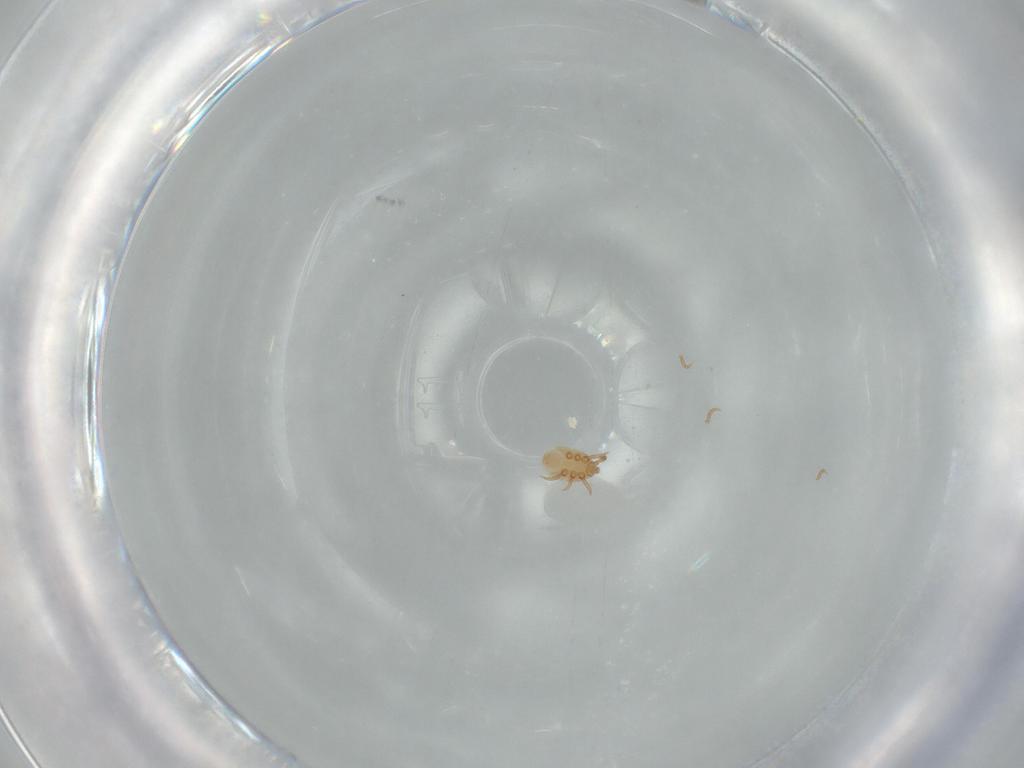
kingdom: Animalia
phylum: Arthropoda
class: Arachnida
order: Mesostigmata
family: Dinychidae
